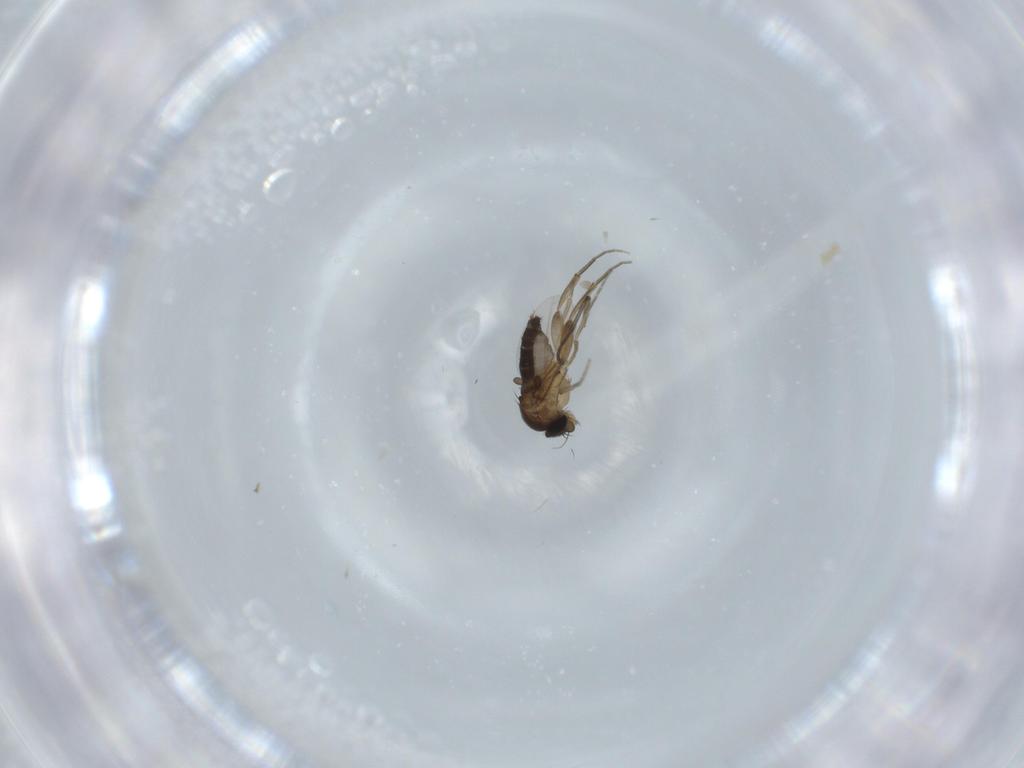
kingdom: Animalia
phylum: Arthropoda
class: Insecta
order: Diptera
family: Phoridae
